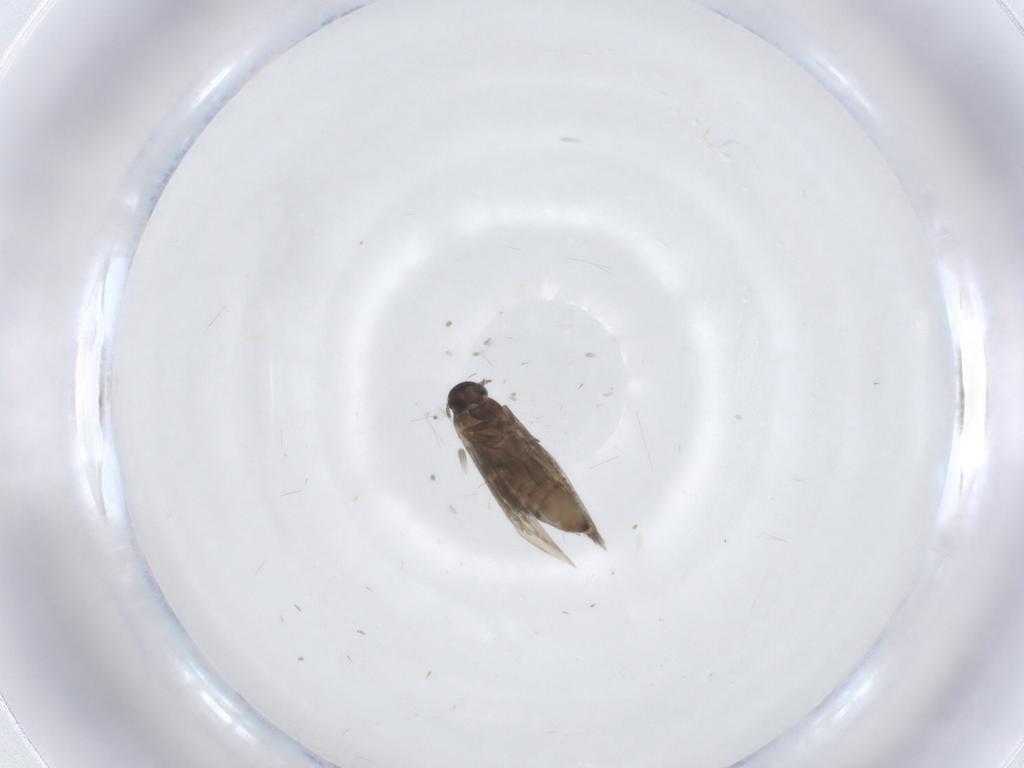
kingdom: Animalia
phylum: Arthropoda
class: Insecta
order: Lepidoptera
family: Heliozelidae
